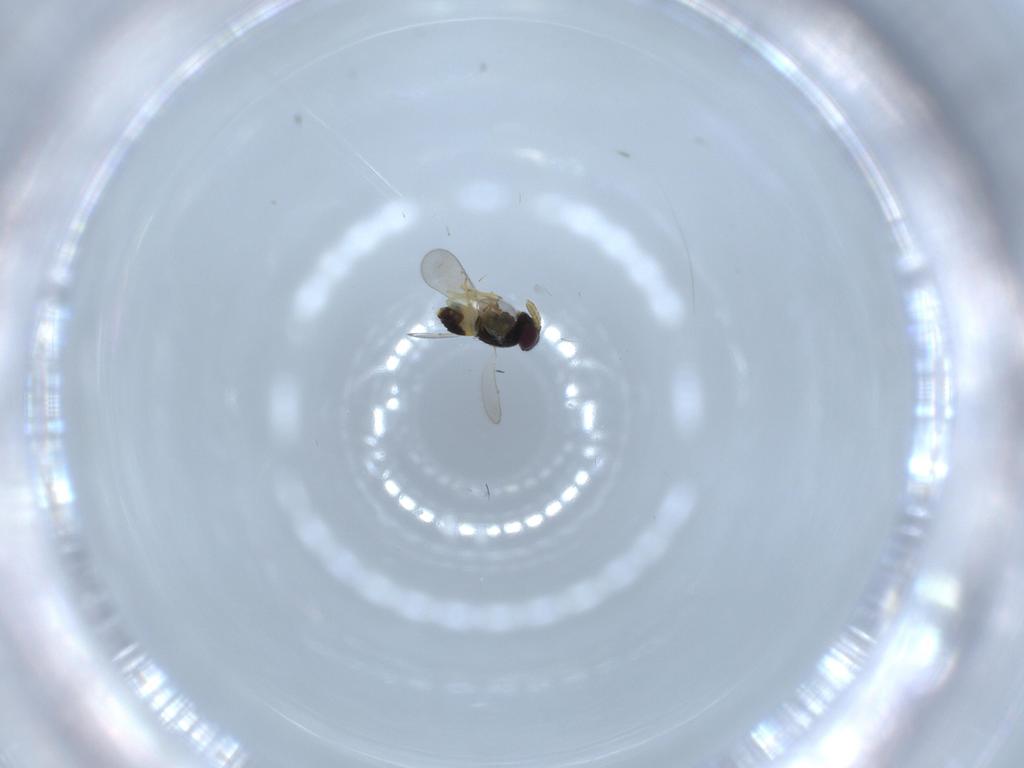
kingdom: Animalia
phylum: Arthropoda
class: Insecta
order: Hymenoptera
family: Aphelinidae
